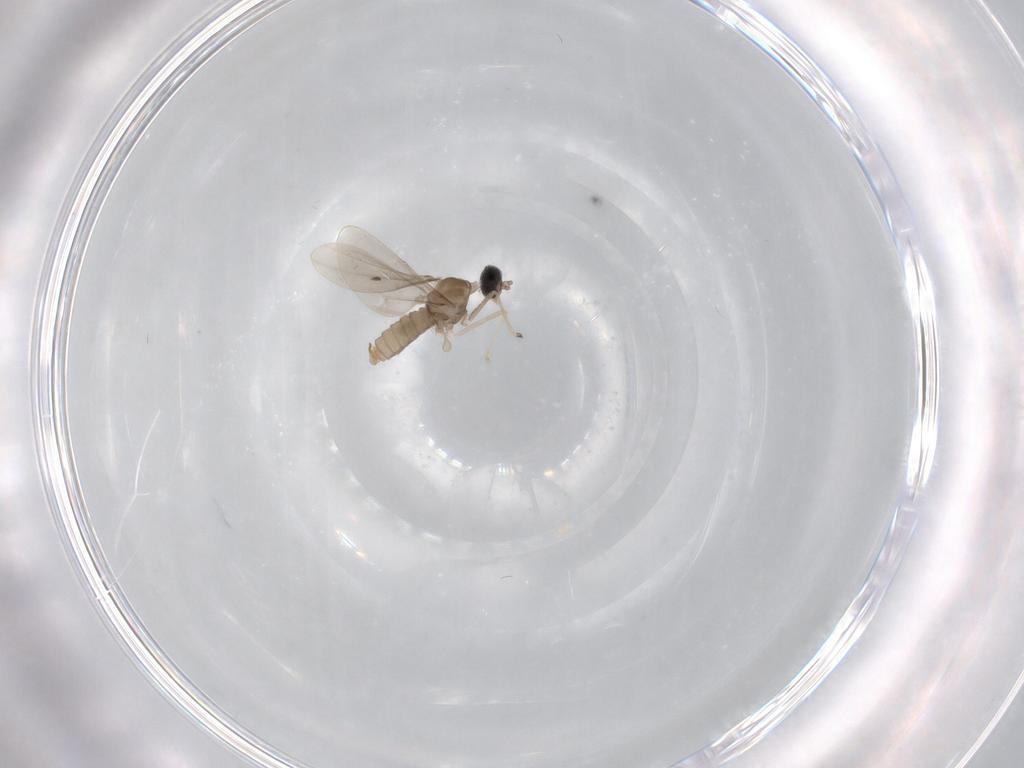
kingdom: Animalia
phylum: Arthropoda
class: Insecta
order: Diptera
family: Cecidomyiidae
